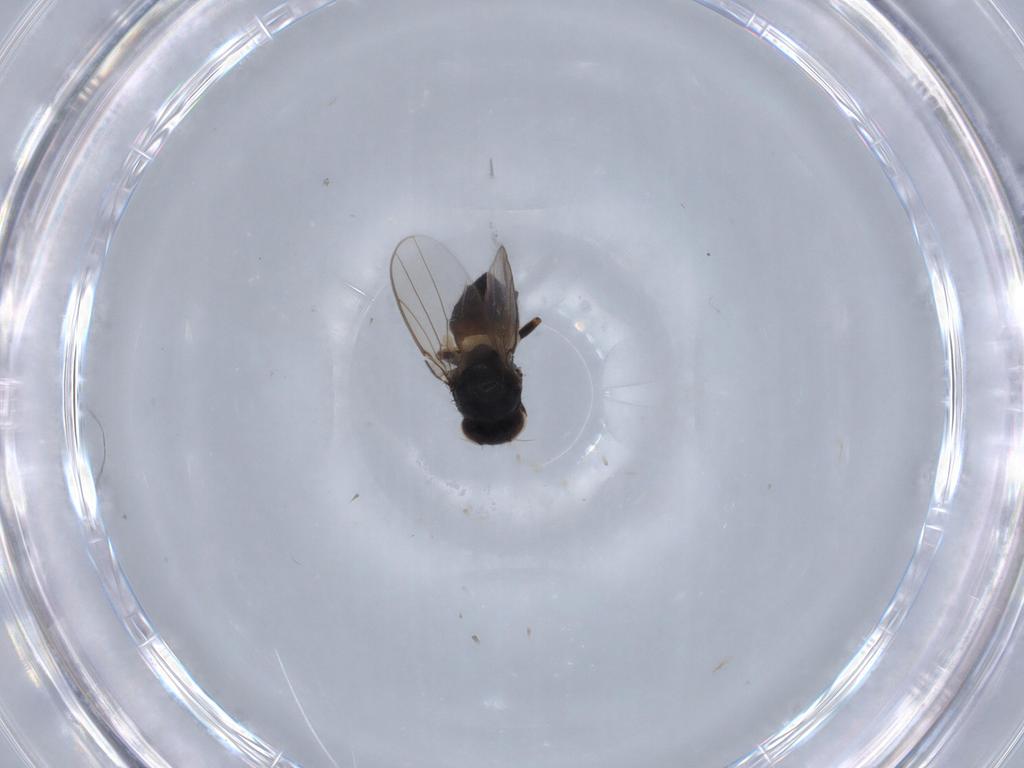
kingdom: Animalia
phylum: Arthropoda
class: Insecta
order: Diptera
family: Chloropidae
